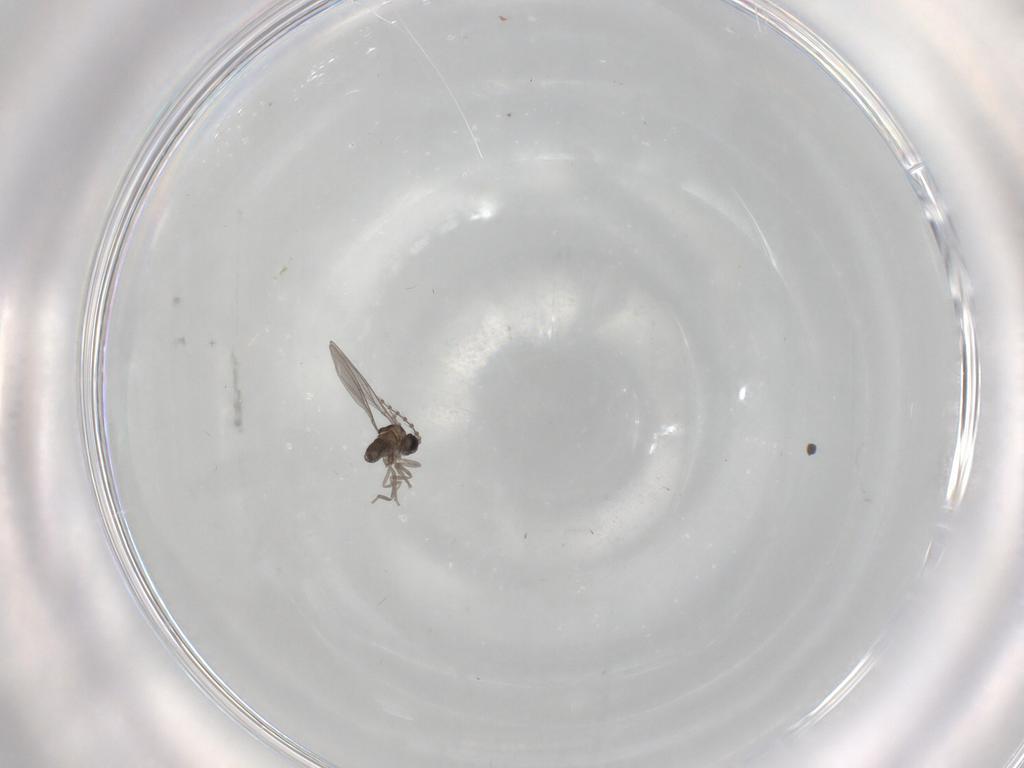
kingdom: Animalia
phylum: Arthropoda
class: Insecta
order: Diptera
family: Cecidomyiidae
